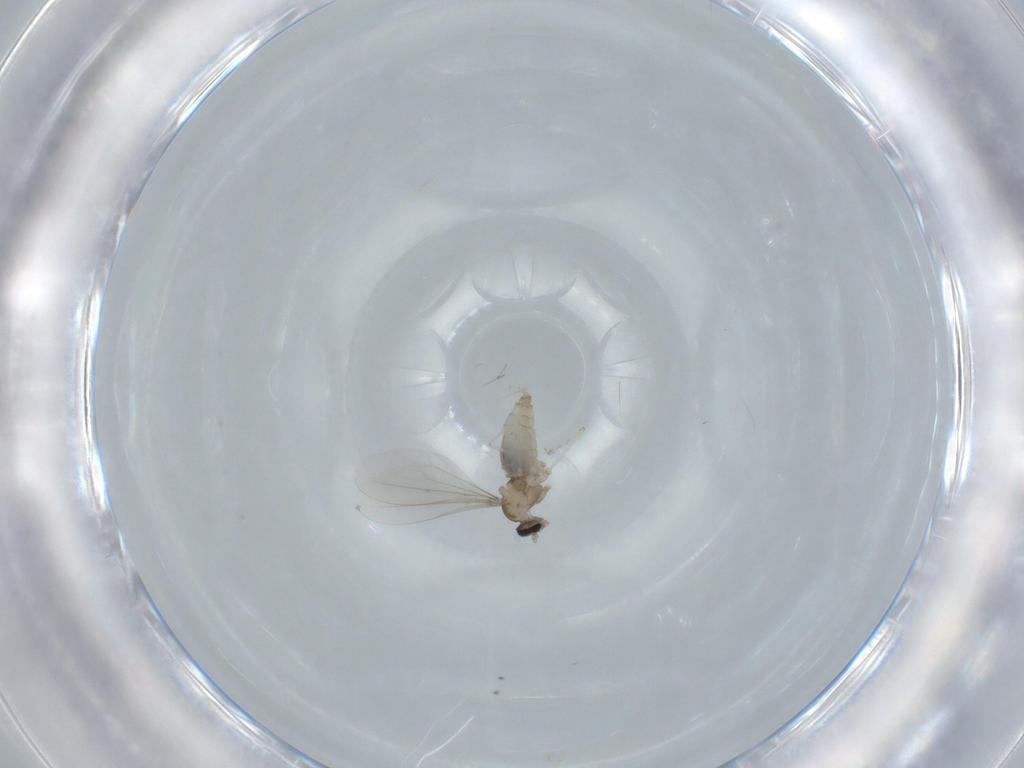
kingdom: Animalia
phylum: Arthropoda
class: Insecta
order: Diptera
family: Cecidomyiidae
